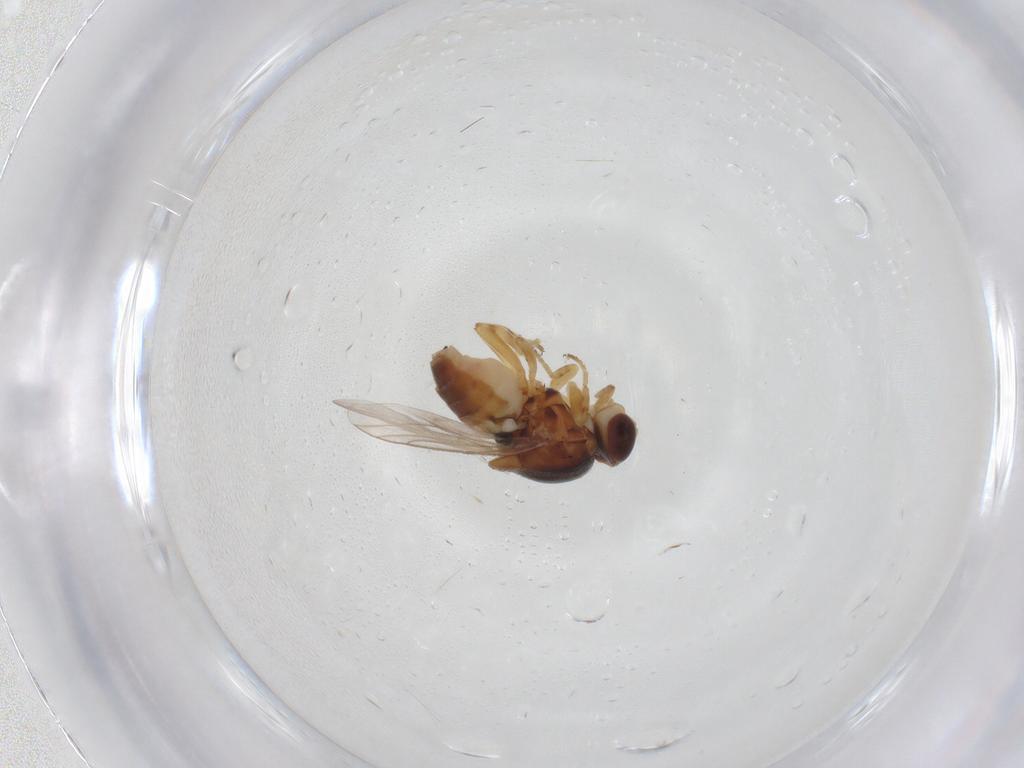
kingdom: Animalia
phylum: Arthropoda
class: Insecta
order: Diptera
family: Chloropidae
